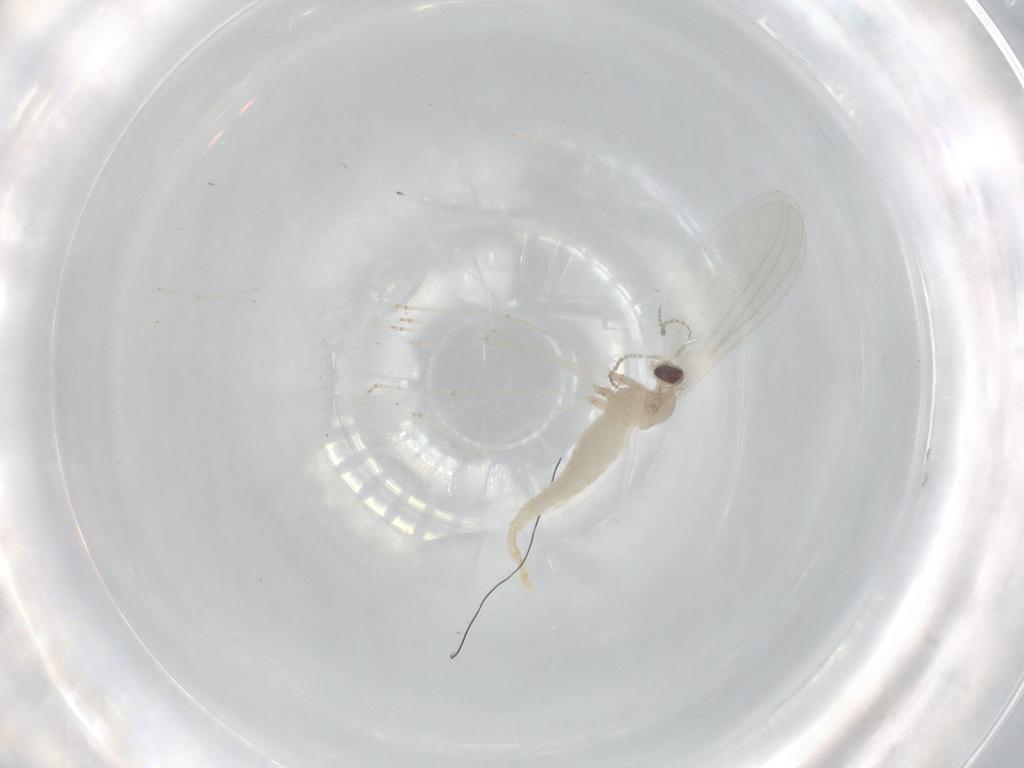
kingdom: Animalia
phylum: Arthropoda
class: Insecta
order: Diptera
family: Cecidomyiidae
